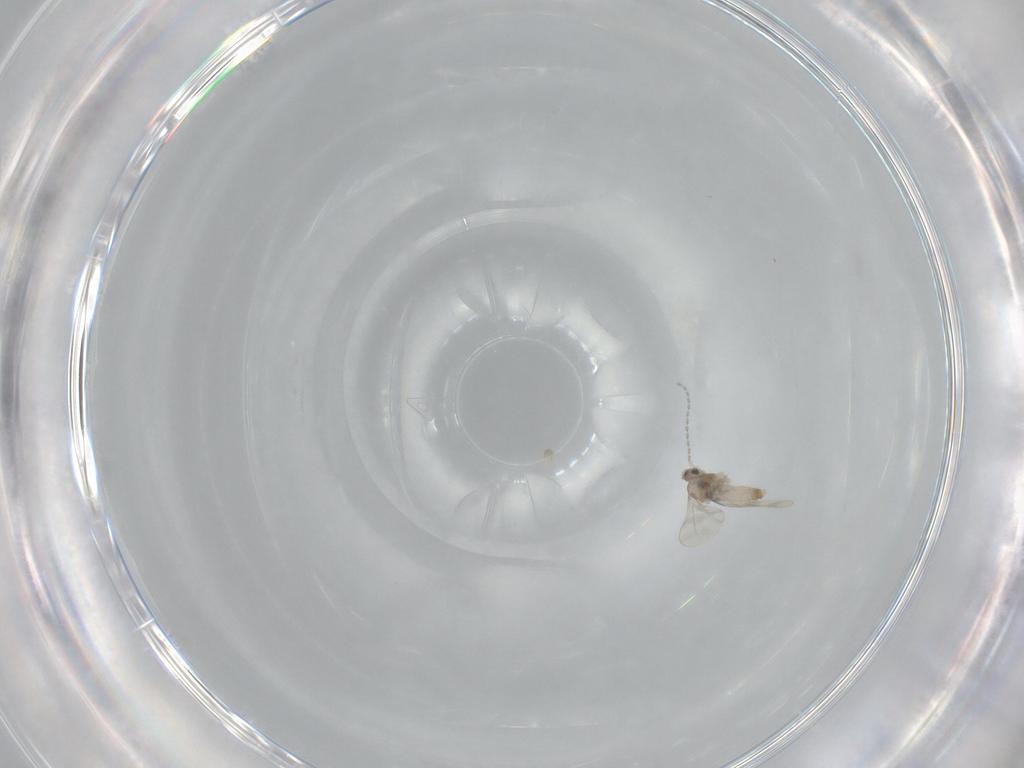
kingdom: Animalia
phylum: Arthropoda
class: Insecta
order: Diptera
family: Cecidomyiidae
